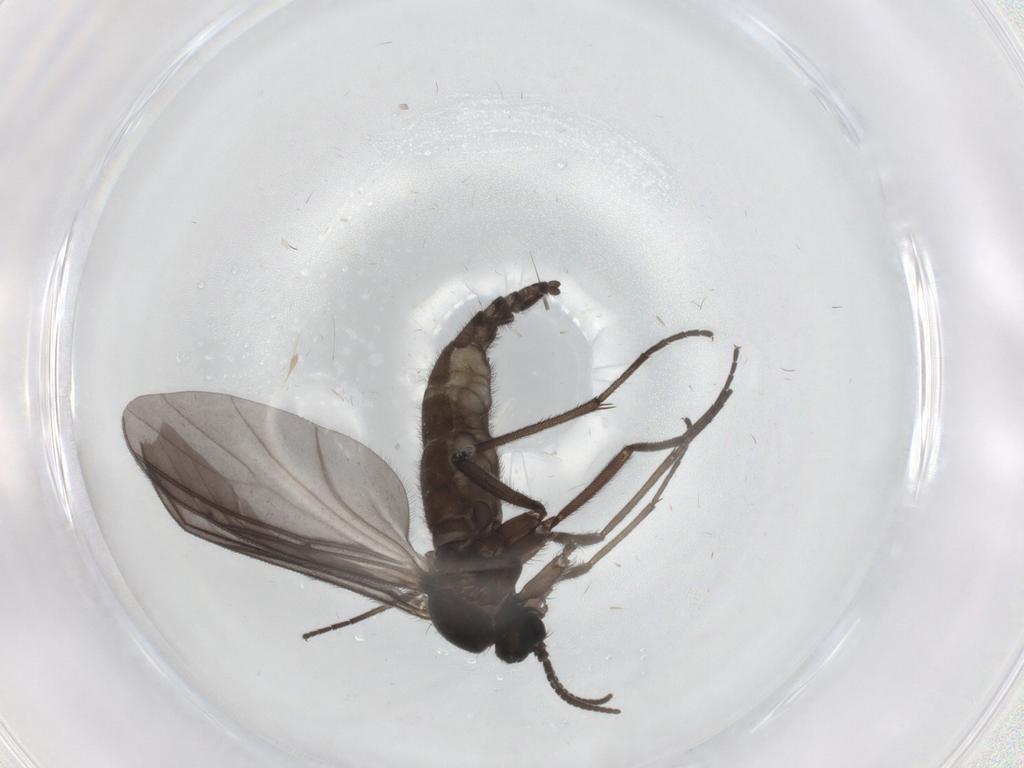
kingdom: Animalia
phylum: Arthropoda
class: Insecta
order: Diptera
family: Sciaridae
